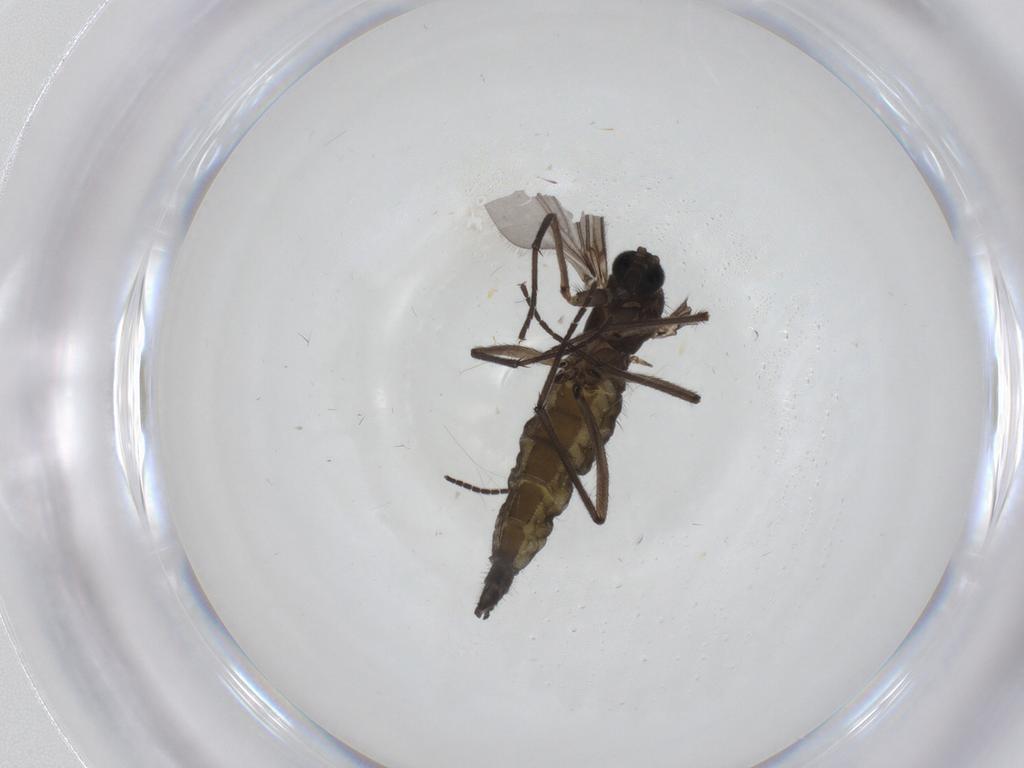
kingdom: Animalia
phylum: Arthropoda
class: Insecta
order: Diptera
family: Sciaridae
